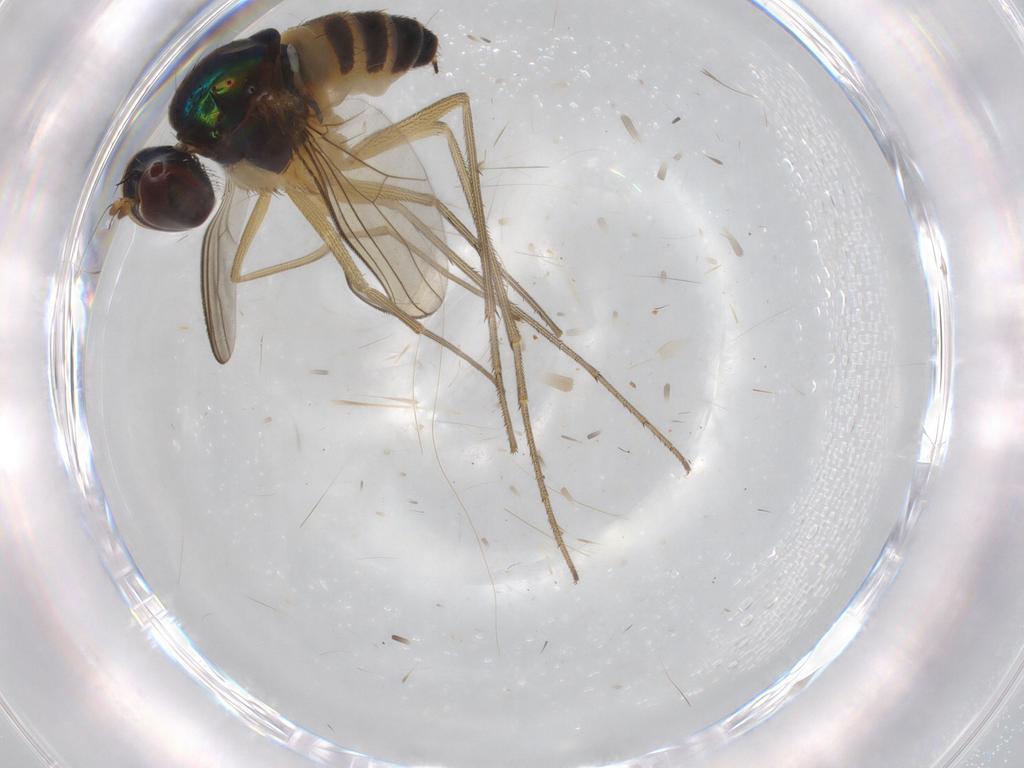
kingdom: Animalia
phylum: Arthropoda
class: Insecta
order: Diptera
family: Dolichopodidae
